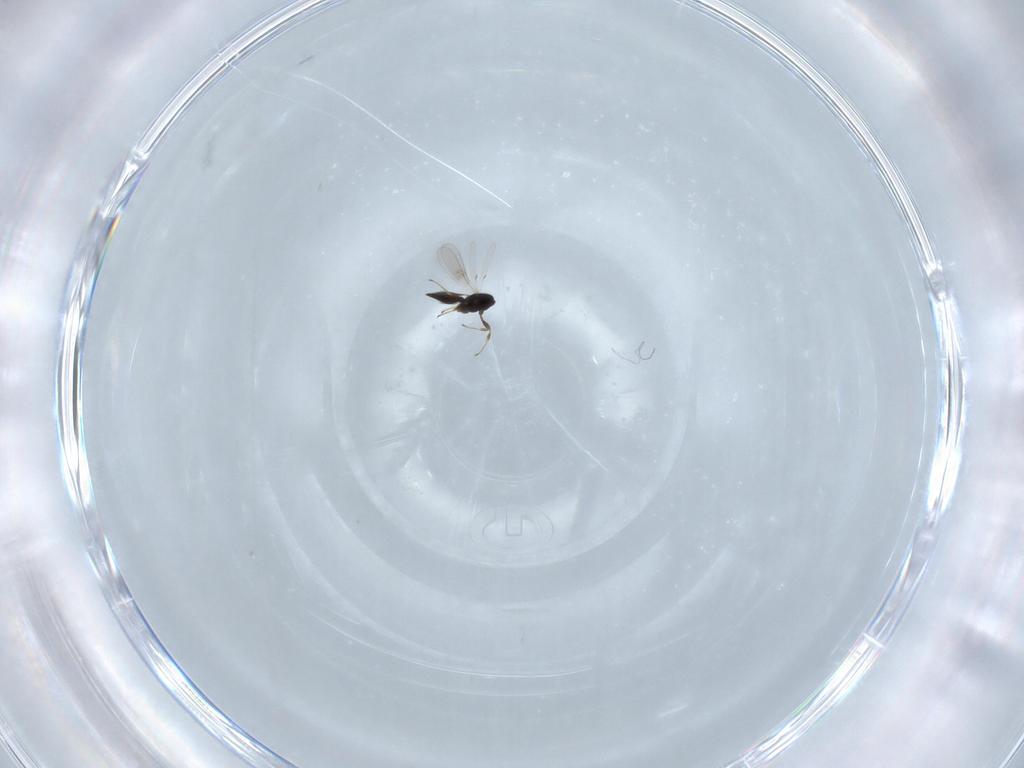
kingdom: Animalia
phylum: Arthropoda
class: Insecta
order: Hymenoptera
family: Scelionidae
